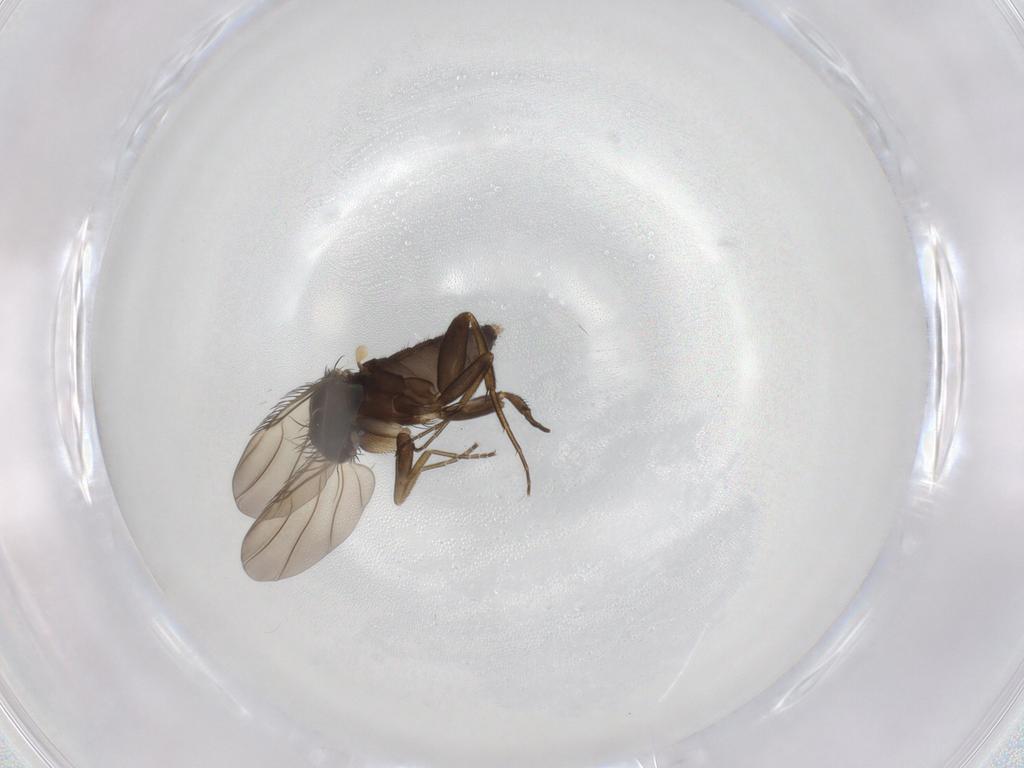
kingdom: Animalia
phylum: Arthropoda
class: Insecta
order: Diptera
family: Phoridae
